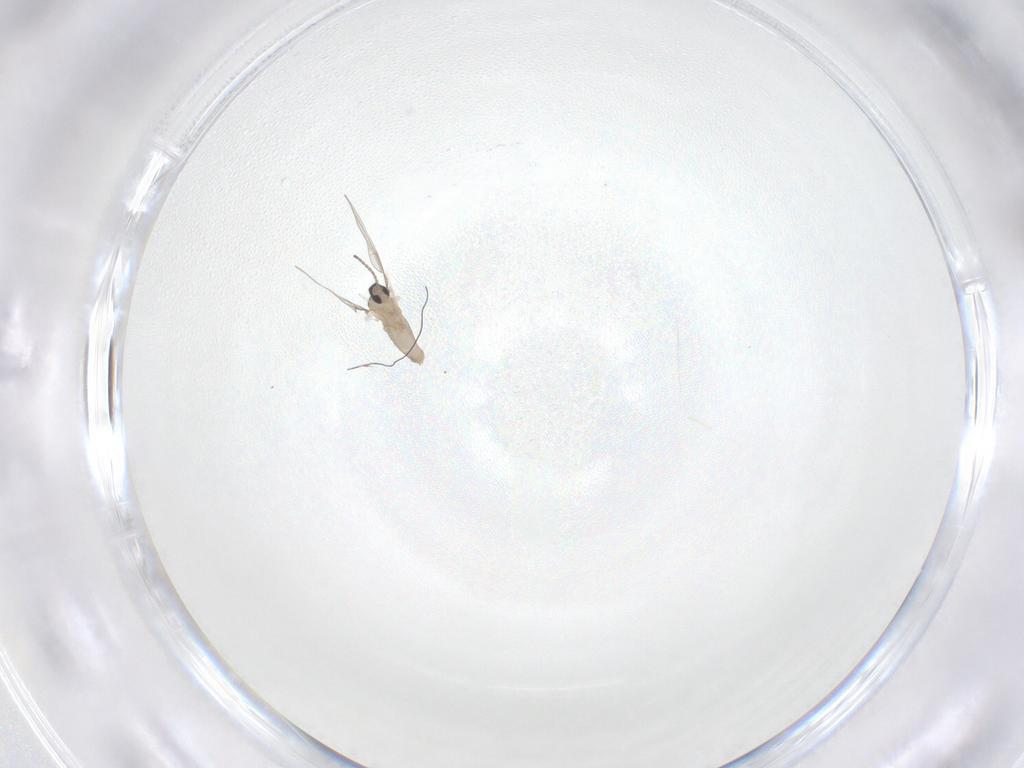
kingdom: Animalia
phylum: Arthropoda
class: Insecta
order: Diptera
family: Cecidomyiidae
